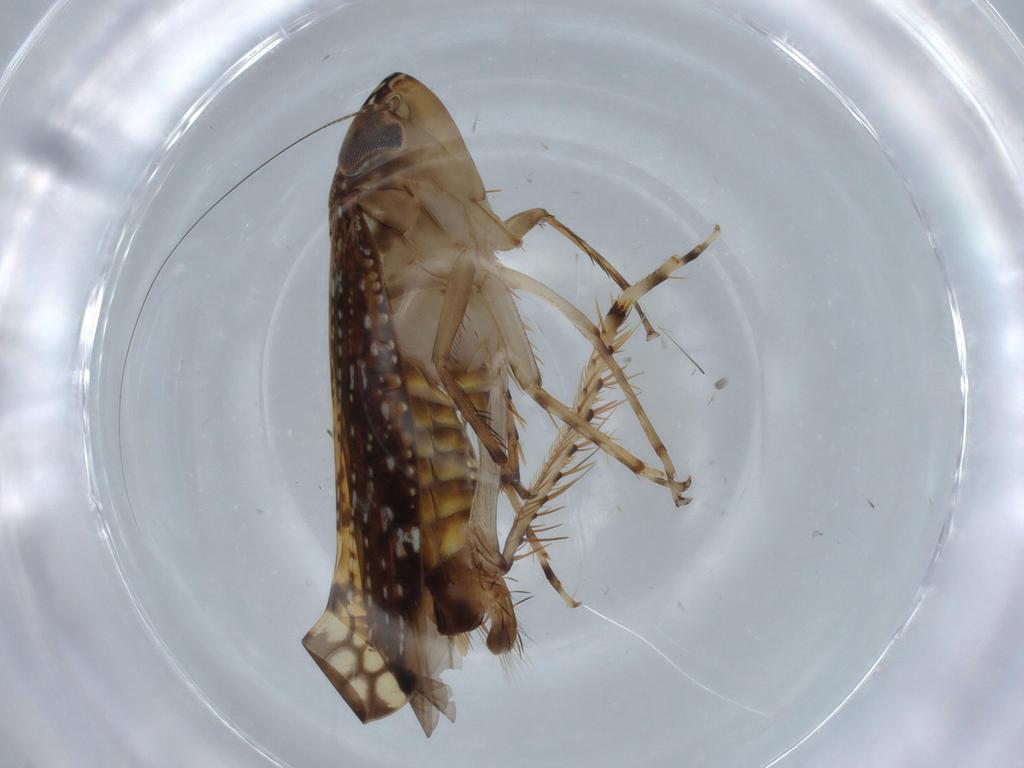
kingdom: Animalia
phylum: Arthropoda
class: Insecta
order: Hemiptera
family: Cicadellidae
